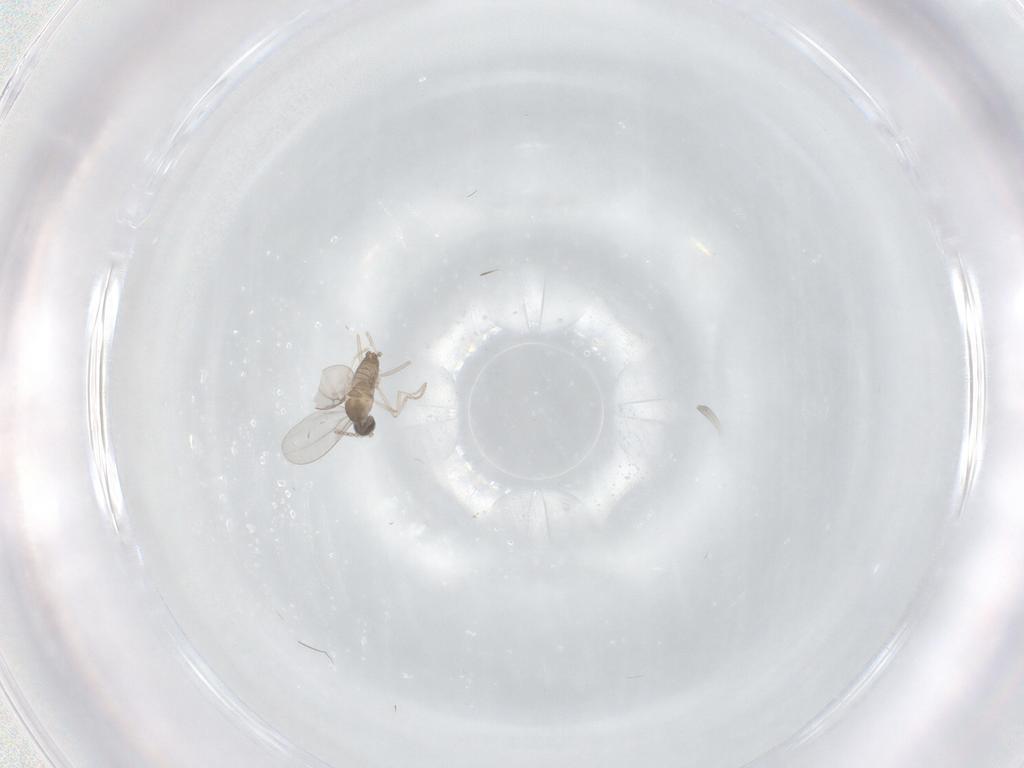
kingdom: Animalia
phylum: Arthropoda
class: Insecta
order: Diptera
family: Cecidomyiidae
